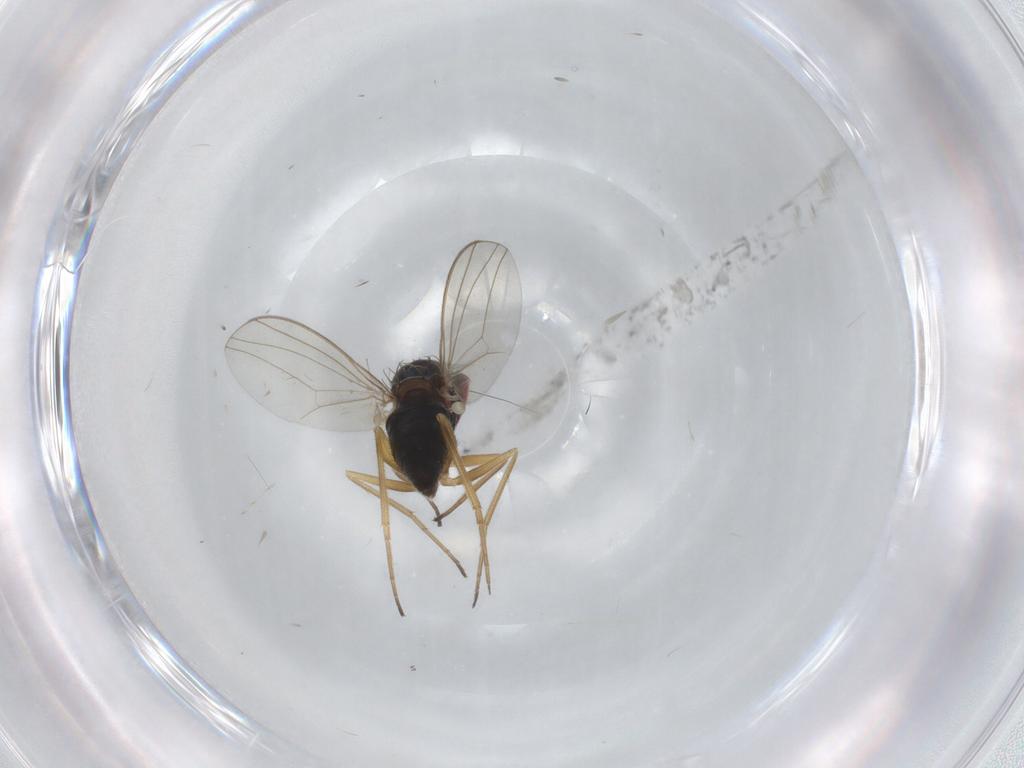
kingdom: Animalia
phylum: Arthropoda
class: Insecta
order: Diptera
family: Dolichopodidae
